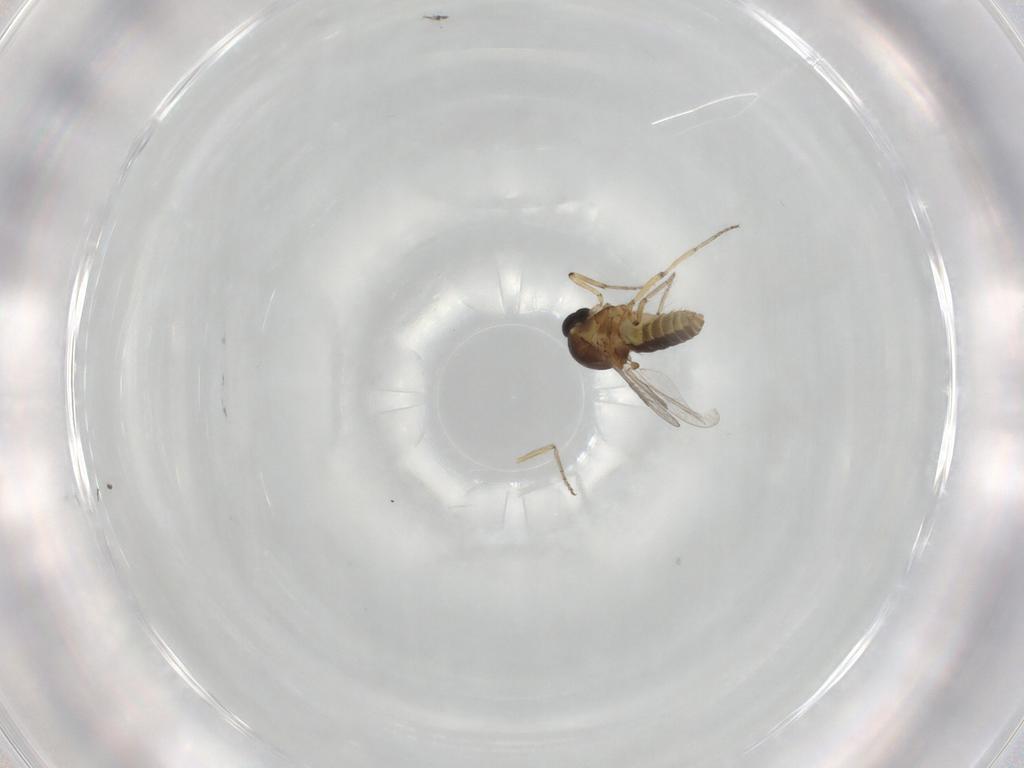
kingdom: Animalia
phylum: Arthropoda
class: Insecta
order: Diptera
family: Ceratopogonidae
